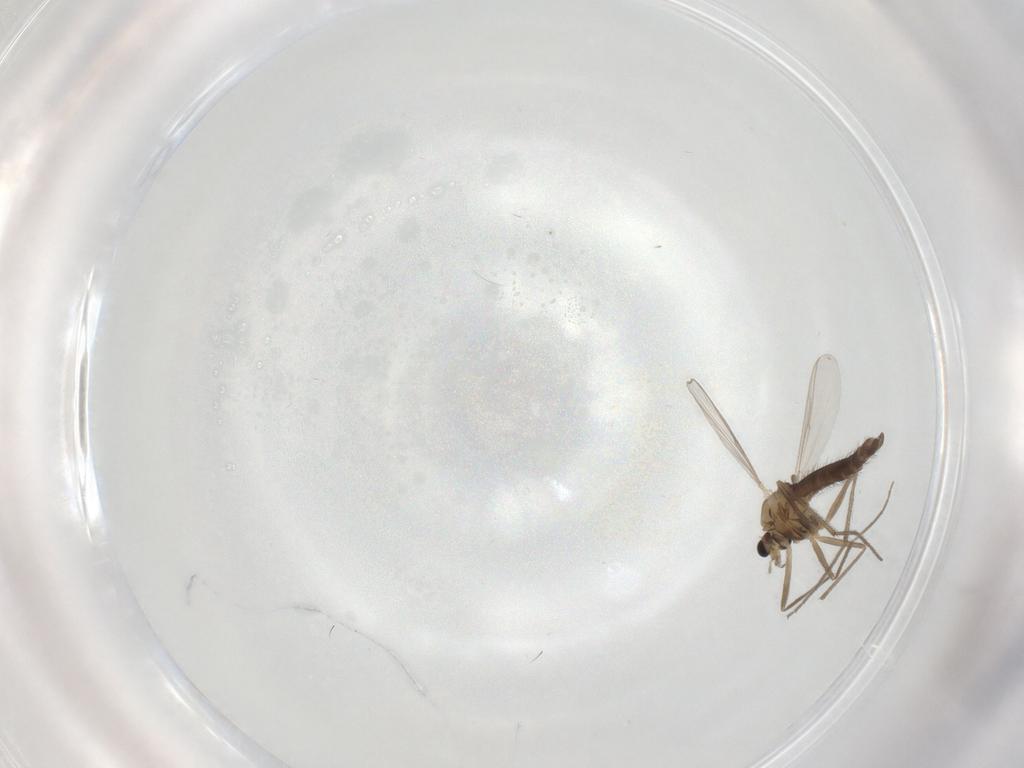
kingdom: Animalia
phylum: Arthropoda
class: Insecta
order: Diptera
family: Chironomidae
